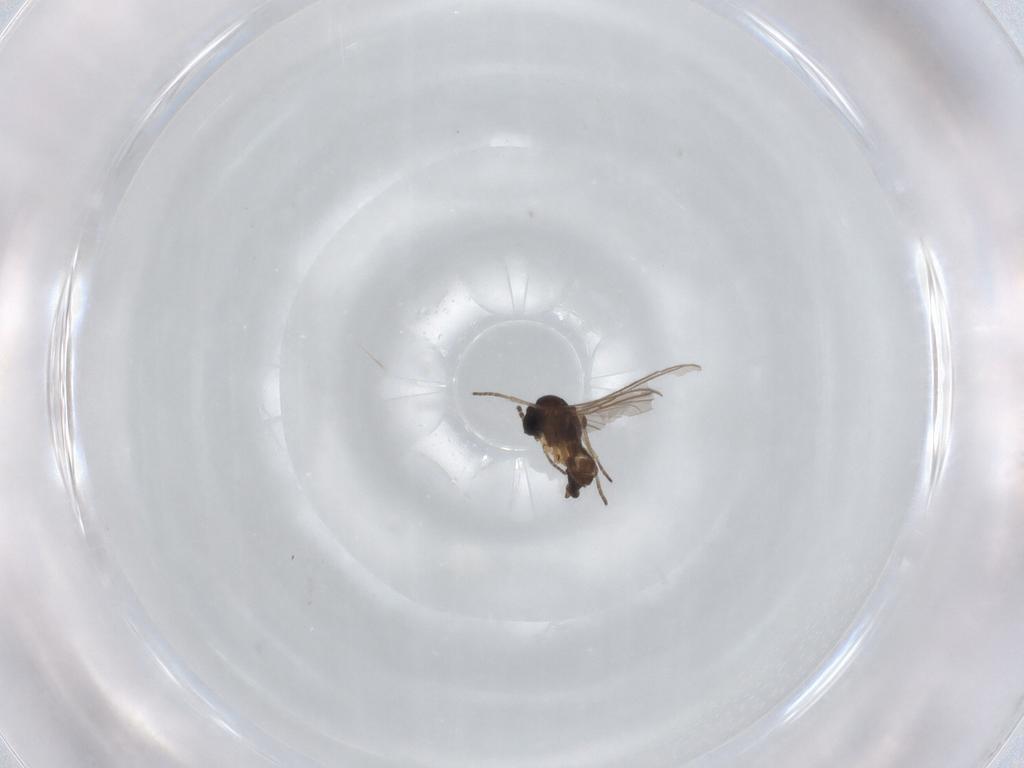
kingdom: Animalia
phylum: Arthropoda
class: Insecta
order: Diptera
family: Sciaridae
